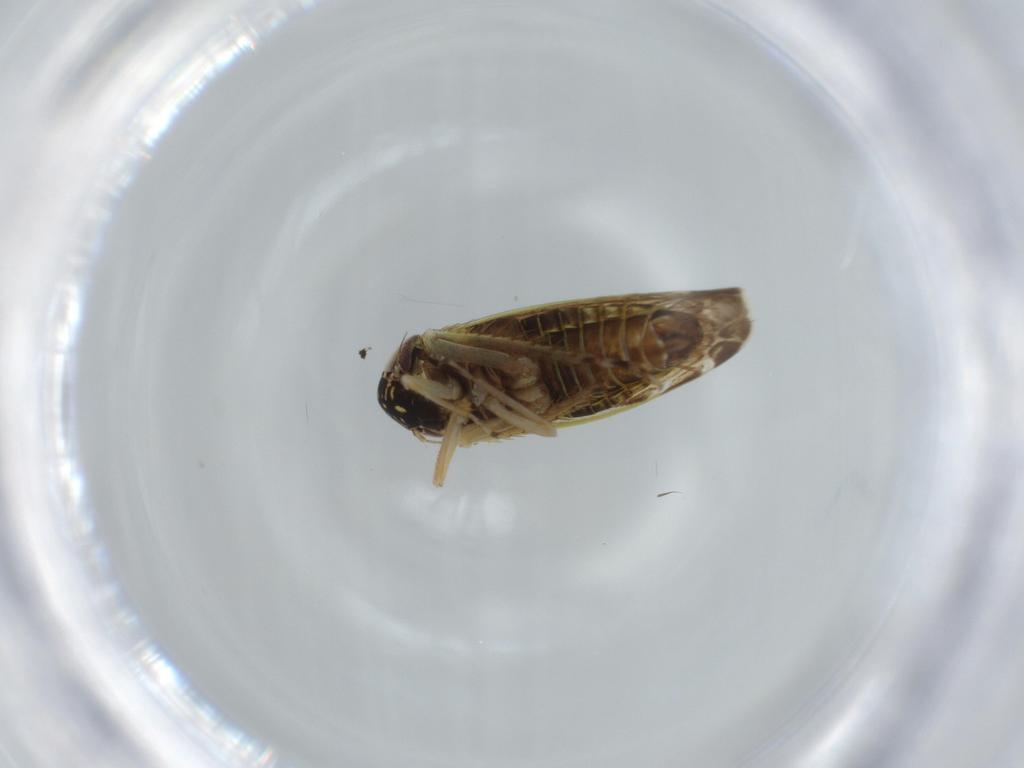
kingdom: Animalia
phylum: Arthropoda
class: Insecta
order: Hemiptera
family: Cicadellidae
